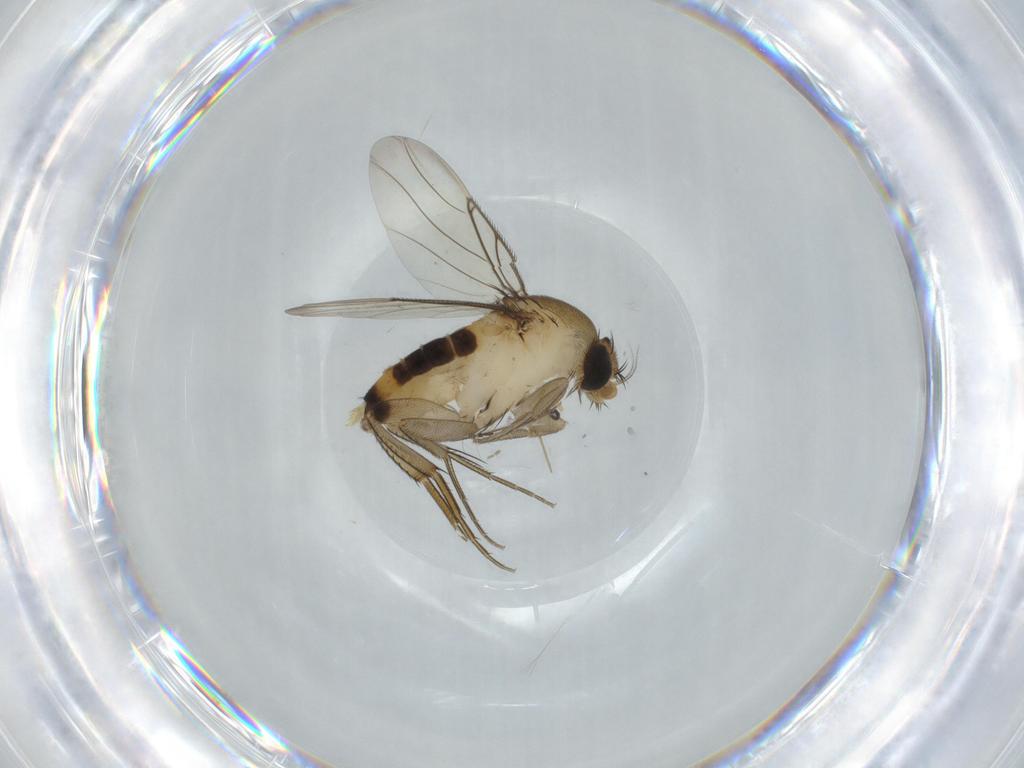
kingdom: Animalia
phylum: Arthropoda
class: Insecta
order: Diptera
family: Phoridae
